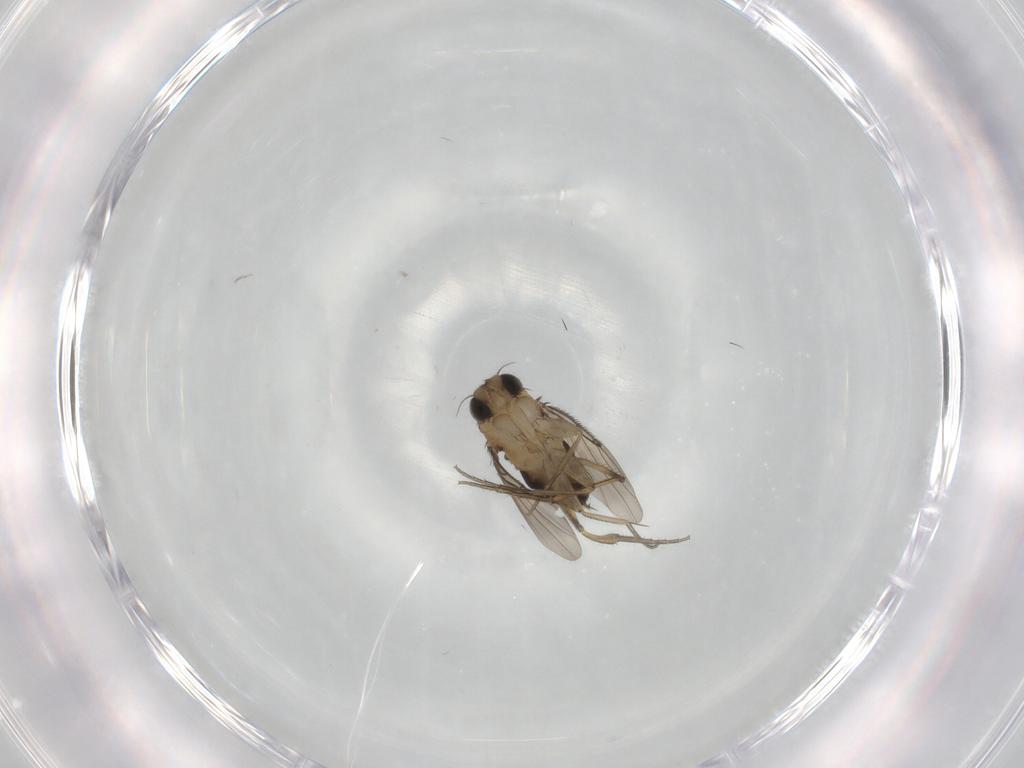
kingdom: Animalia
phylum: Arthropoda
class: Insecta
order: Diptera
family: Phoridae
